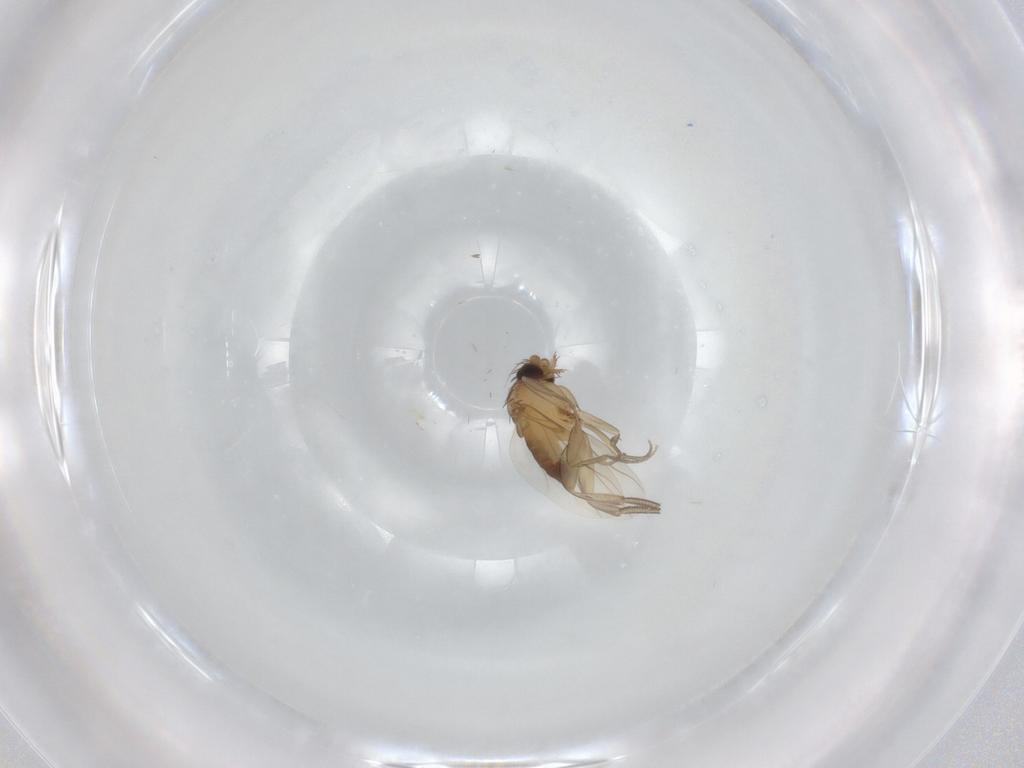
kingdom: Animalia
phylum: Arthropoda
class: Insecta
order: Diptera
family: Phoridae
